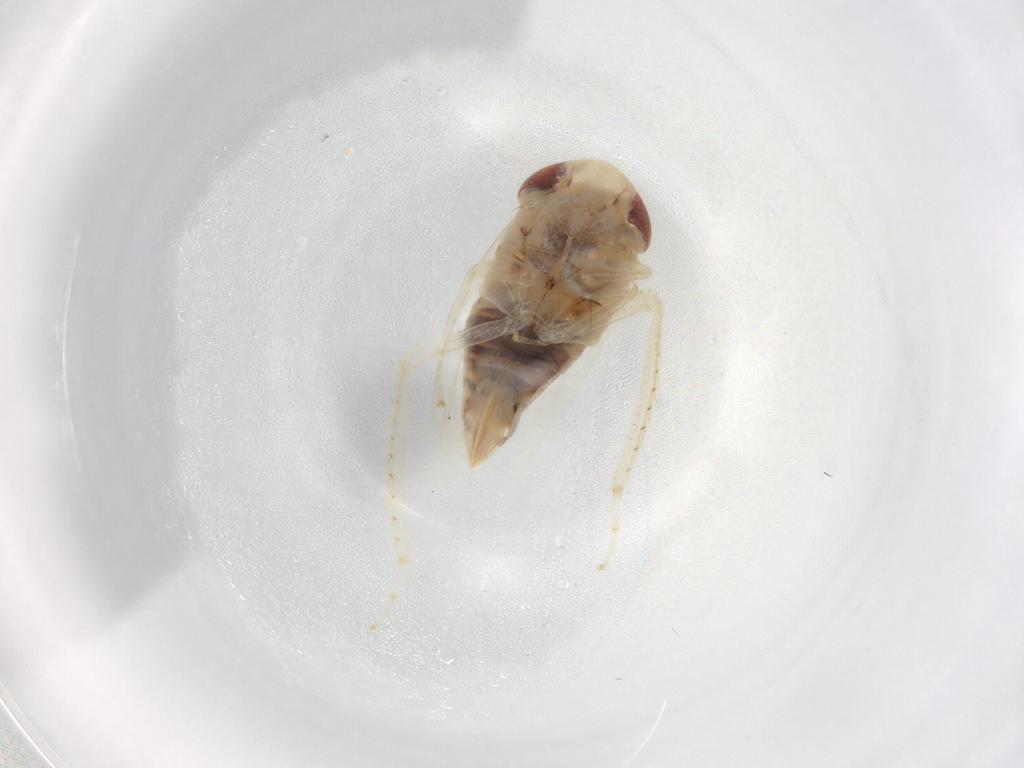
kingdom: Animalia
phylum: Arthropoda
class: Insecta
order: Hemiptera
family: Cicadellidae
